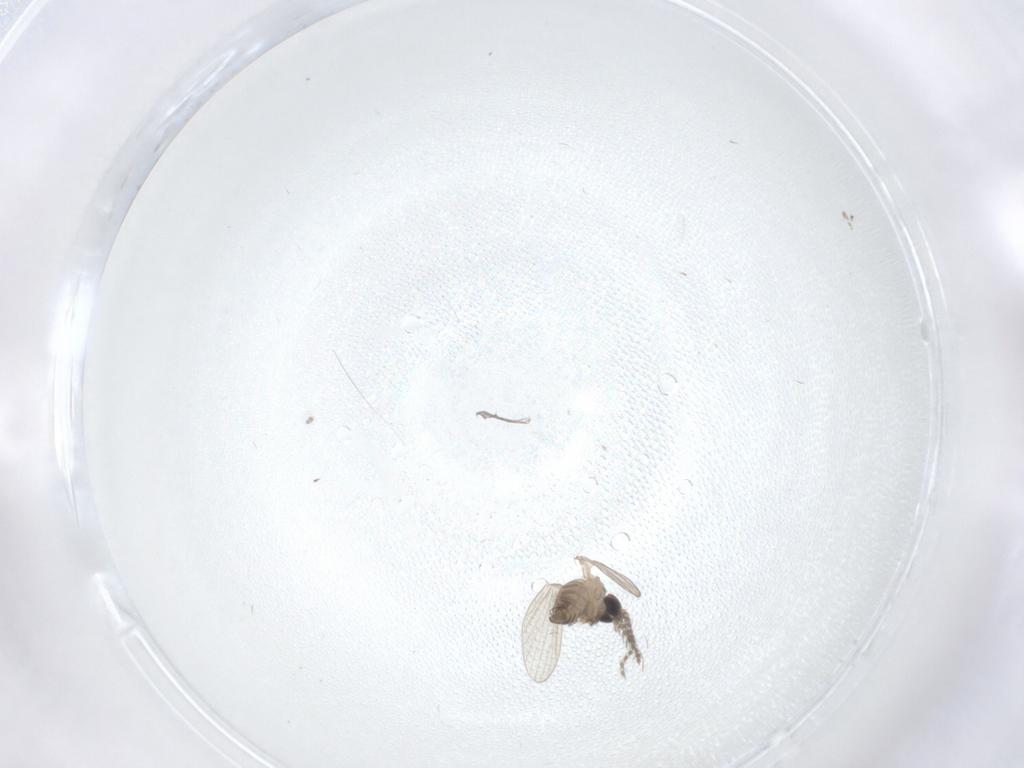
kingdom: Animalia
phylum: Arthropoda
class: Insecta
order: Diptera
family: Psychodidae
